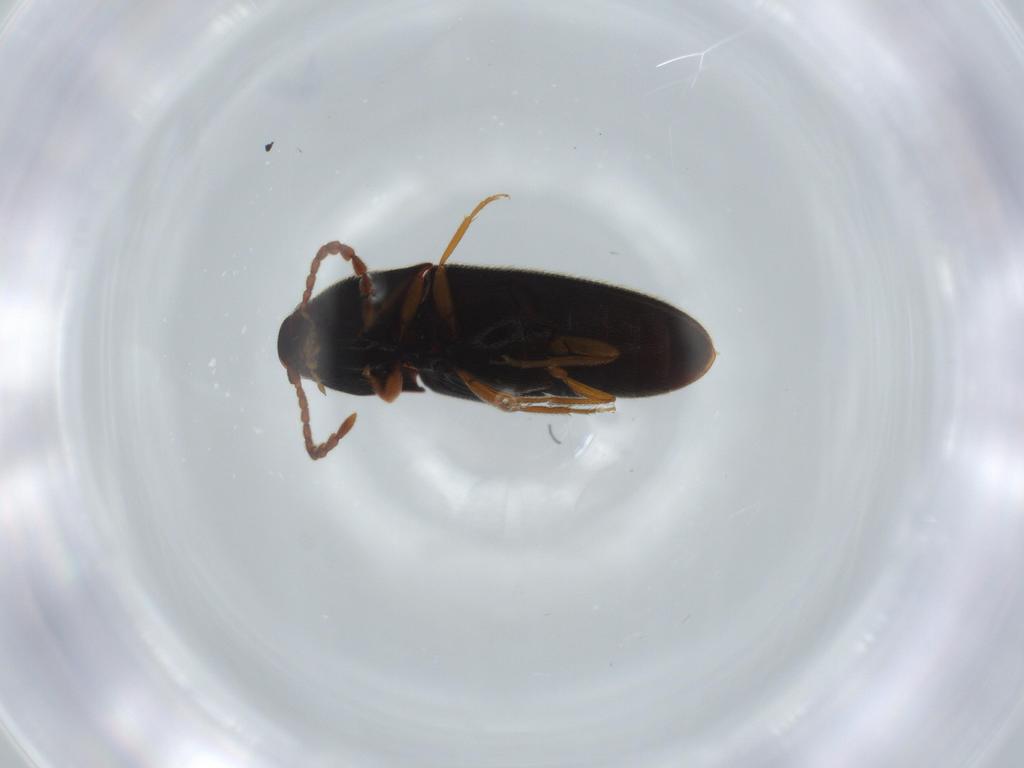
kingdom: Animalia
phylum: Arthropoda
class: Insecta
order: Coleoptera
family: Elateridae
